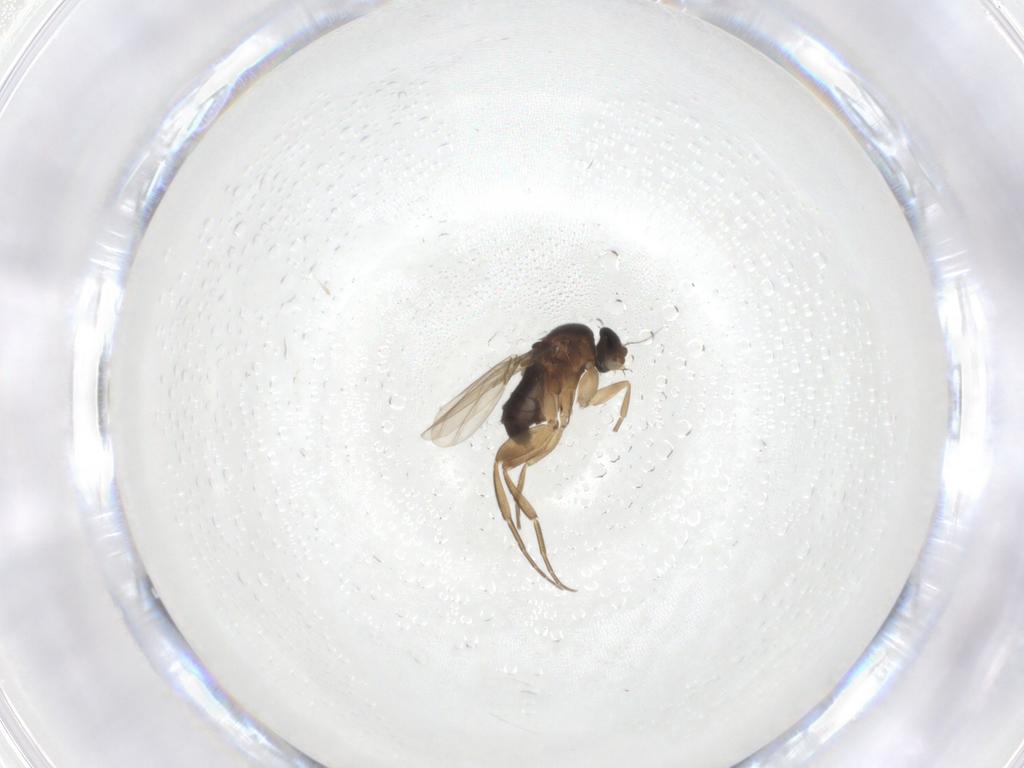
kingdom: Animalia
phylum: Arthropoda
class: Insecta
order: Diptera
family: Phoridae
